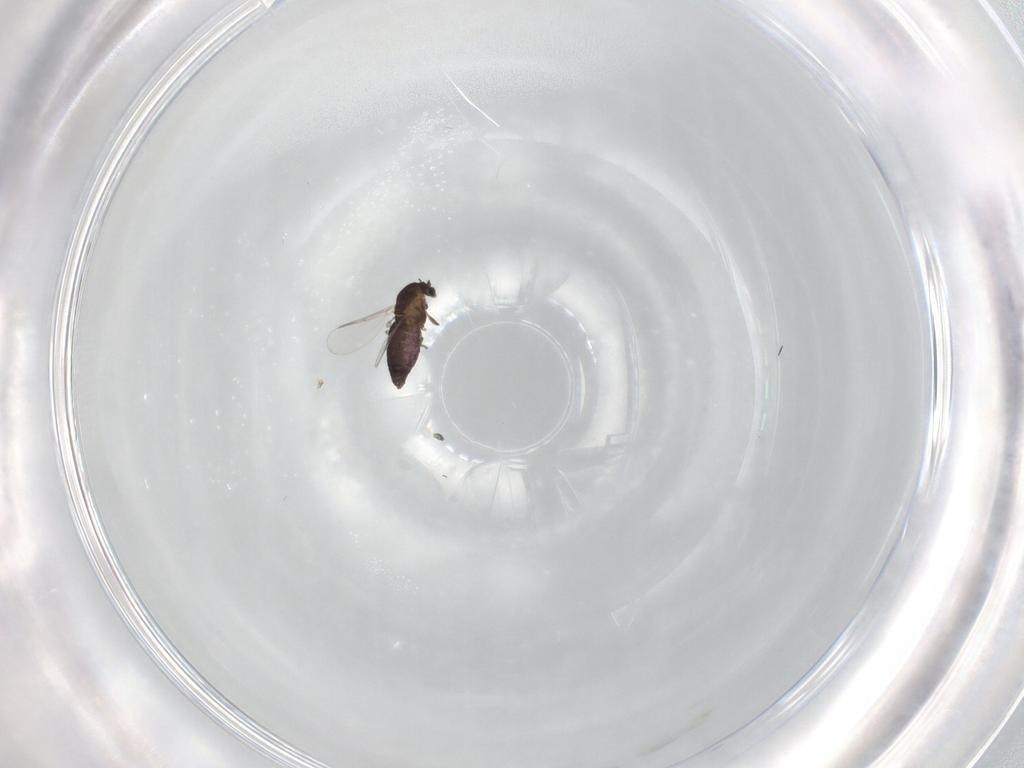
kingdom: Animalia
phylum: Arthropoda
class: Insecta
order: Diptera
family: Chironomidae
